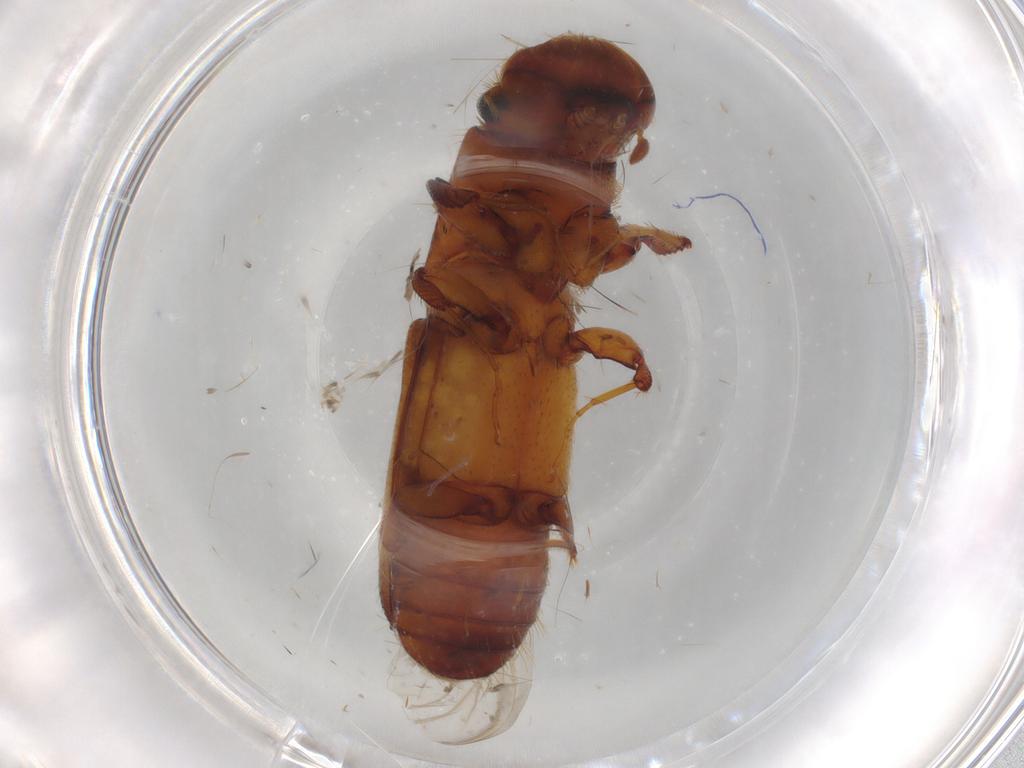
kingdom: Animalia
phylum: Arthropoda
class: Insecta
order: Coleoptera
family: Curculionidae
